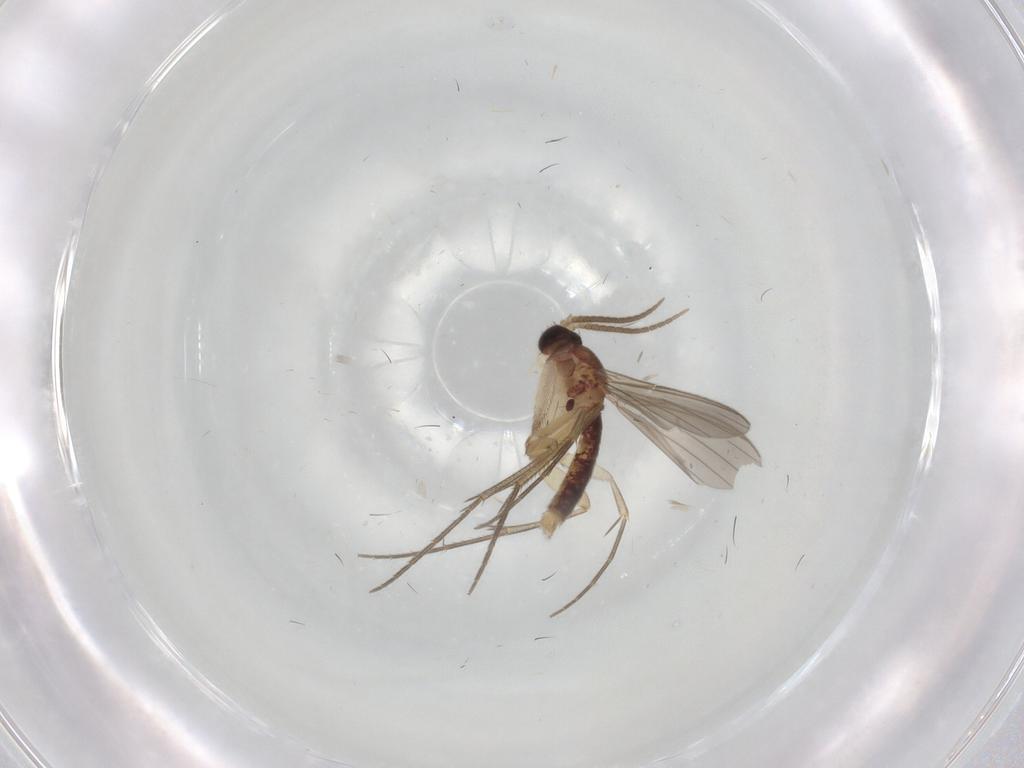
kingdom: Animalia
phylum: Arthropoda
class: Insecta
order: Diptera
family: Mycetophilidae
